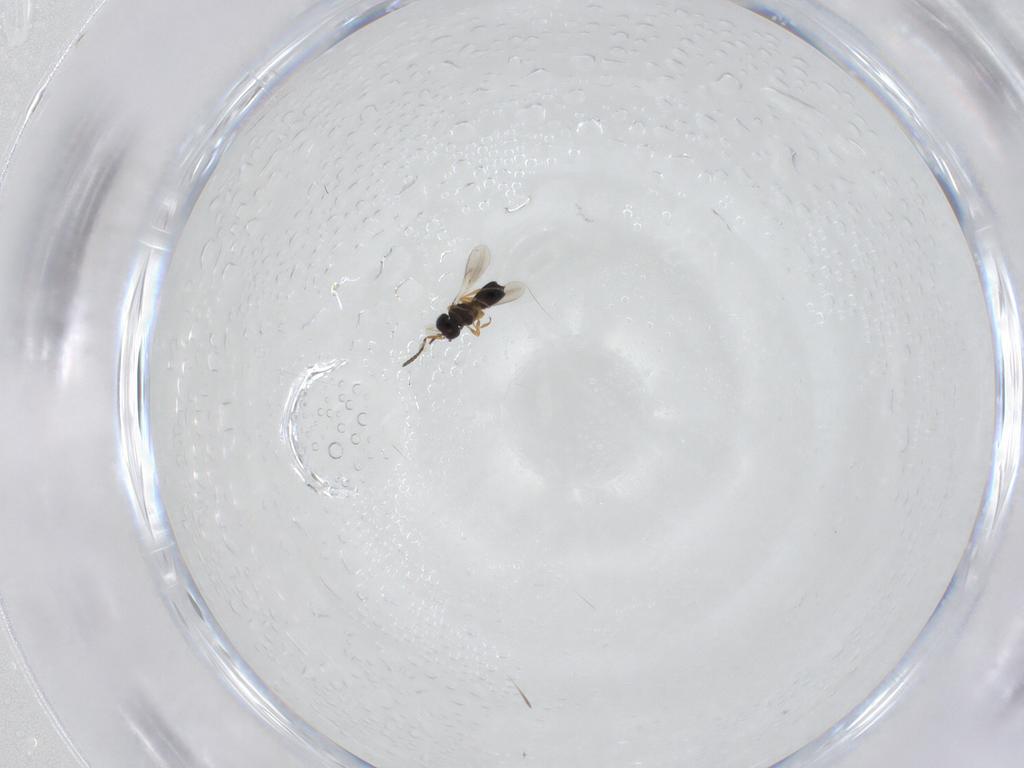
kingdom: Animalia
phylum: Arthropoda
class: Insecta
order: Hymenoptera
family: Scelionidae
